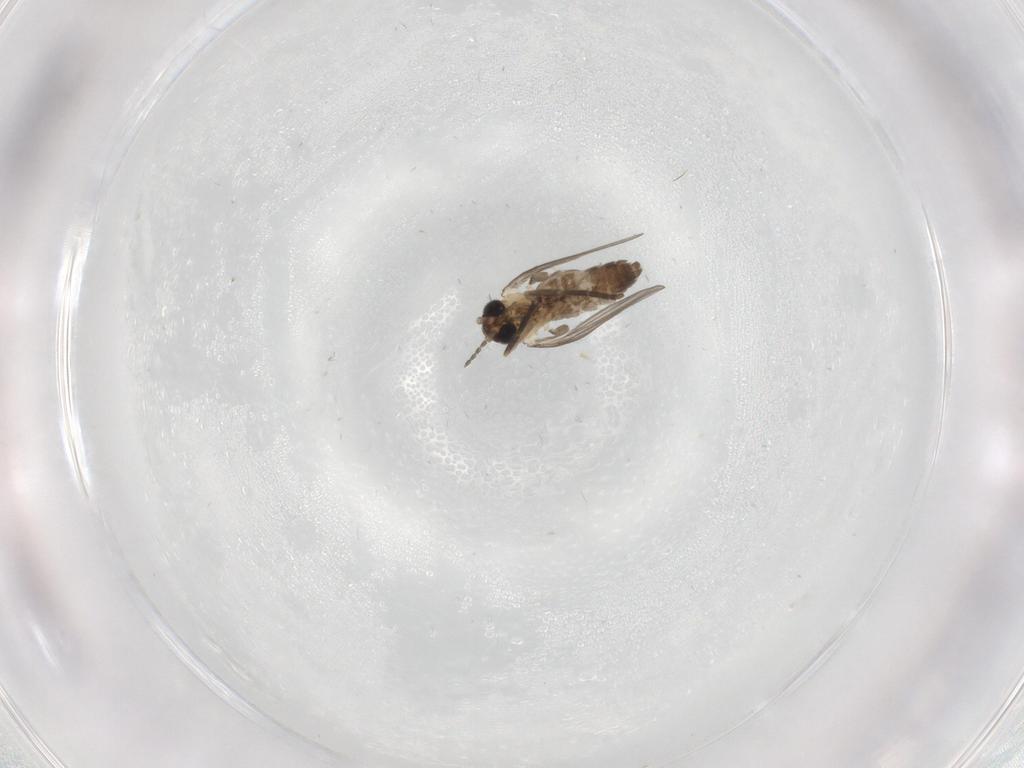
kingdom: Animalia
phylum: Arthropoda
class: Insecta
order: Diptera
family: Psychodidae
